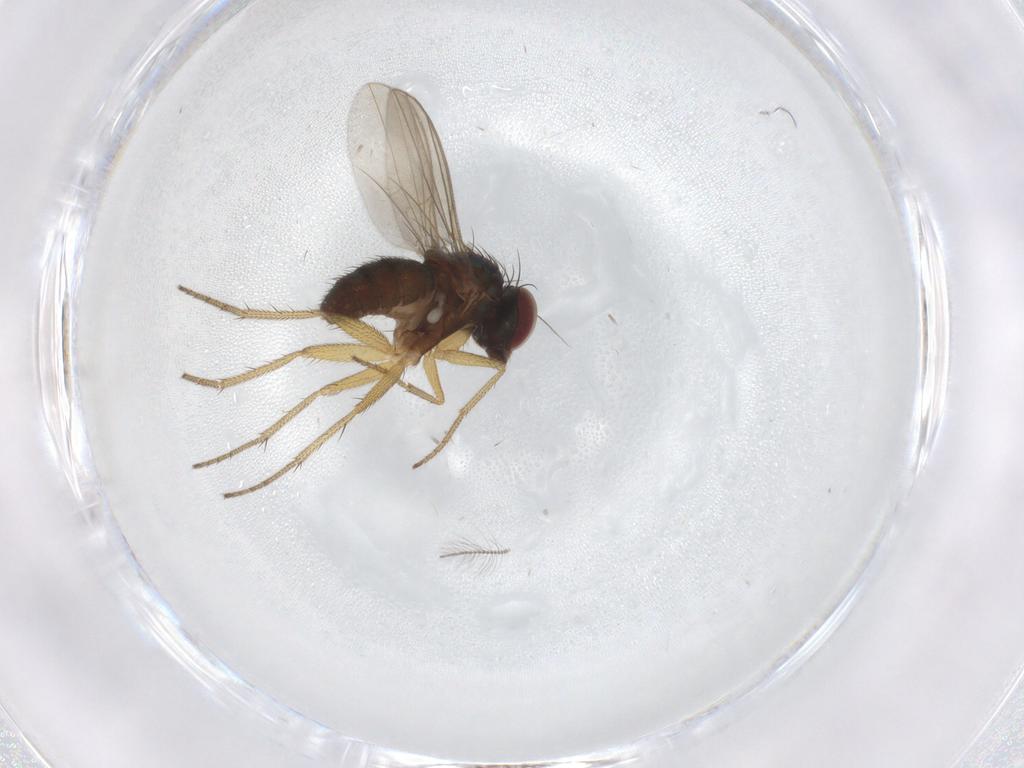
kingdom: Animalia
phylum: Arthropoda
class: Insecta
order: Diptera
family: Chironomidae
